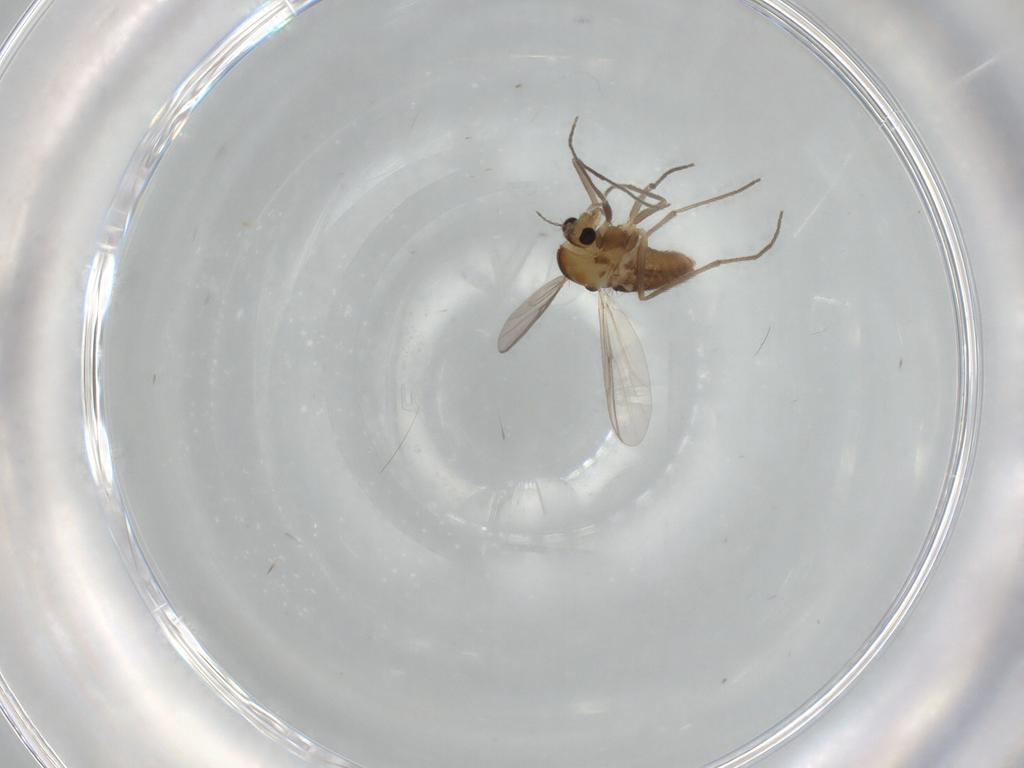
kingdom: Animalia
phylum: Arthropoda
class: Insecta
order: Diptera
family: Chironomidae
